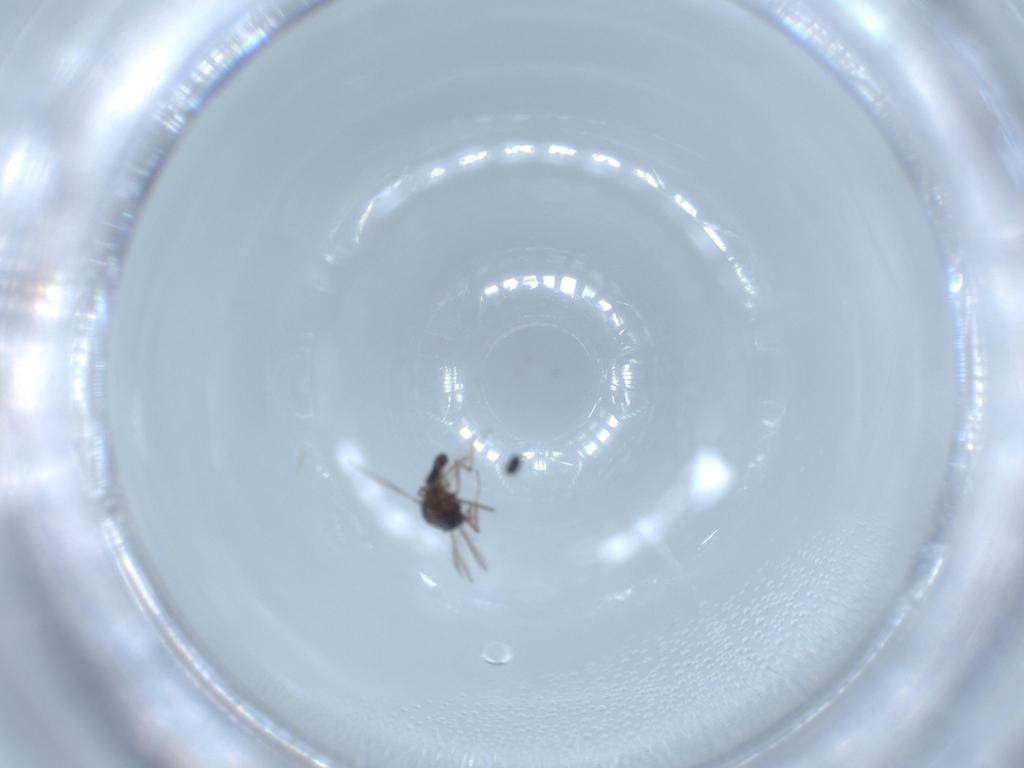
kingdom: Animalia
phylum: Arthropoda
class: Insecta
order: Diptera
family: Ceratopogonidae
